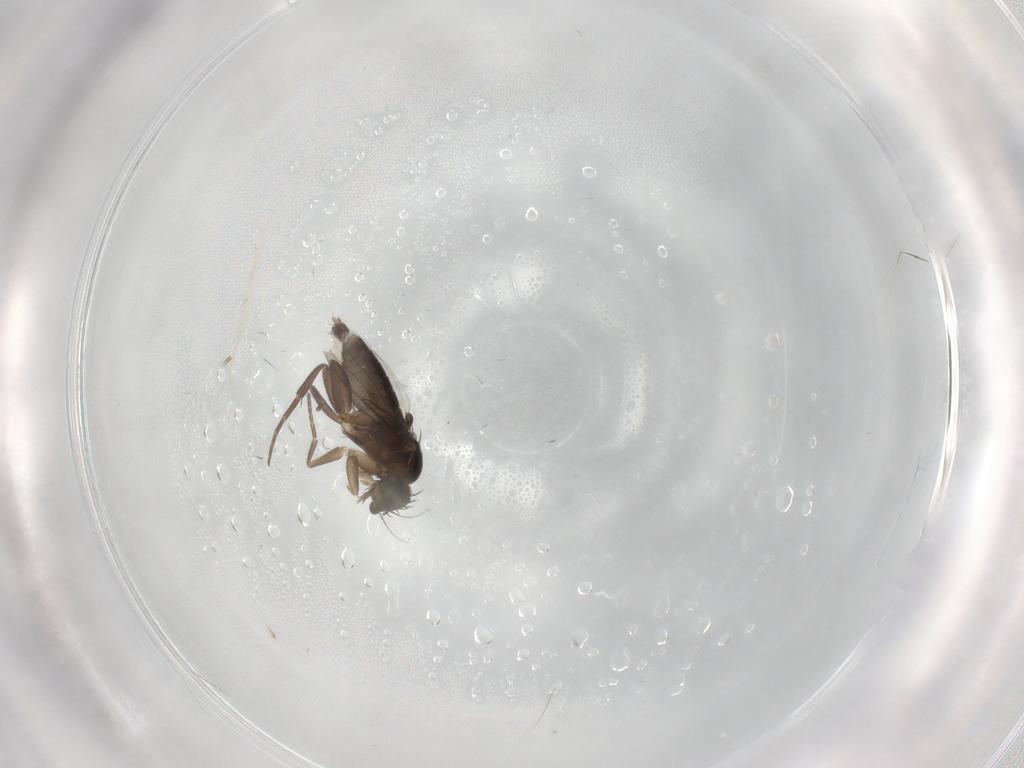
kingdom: Animalia
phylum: Arthropoda
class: Insecta
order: Diptera
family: Phoridae
